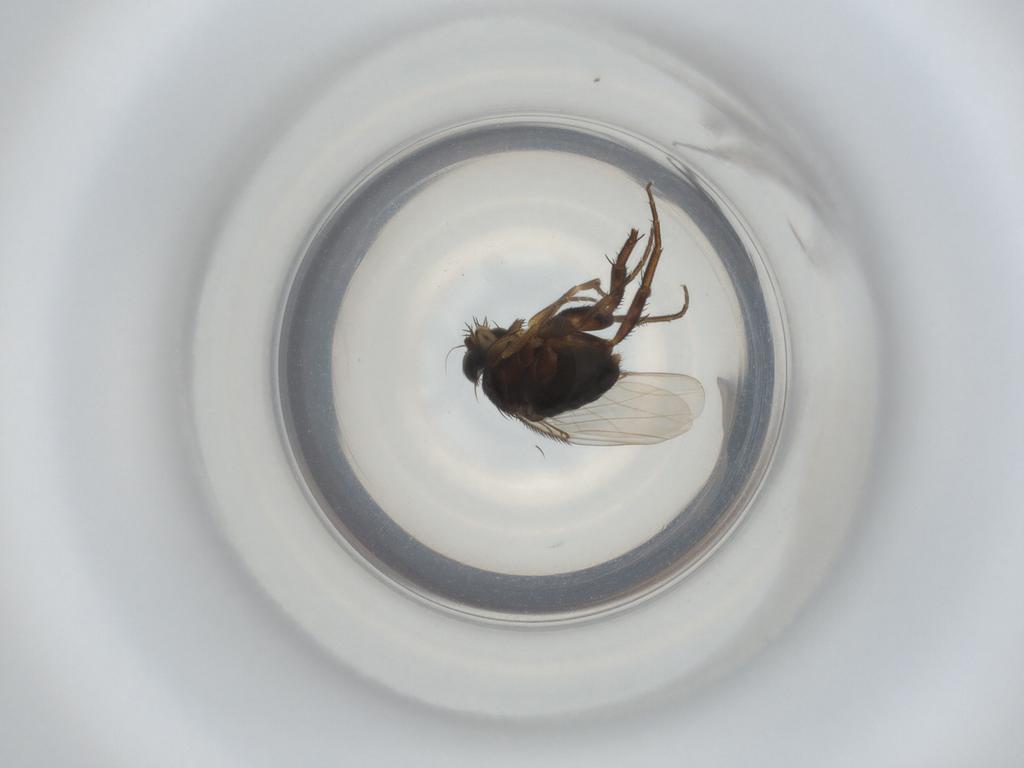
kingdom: Animalia
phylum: Arthropoda
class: Insecta
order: Diptera
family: Phoridae
